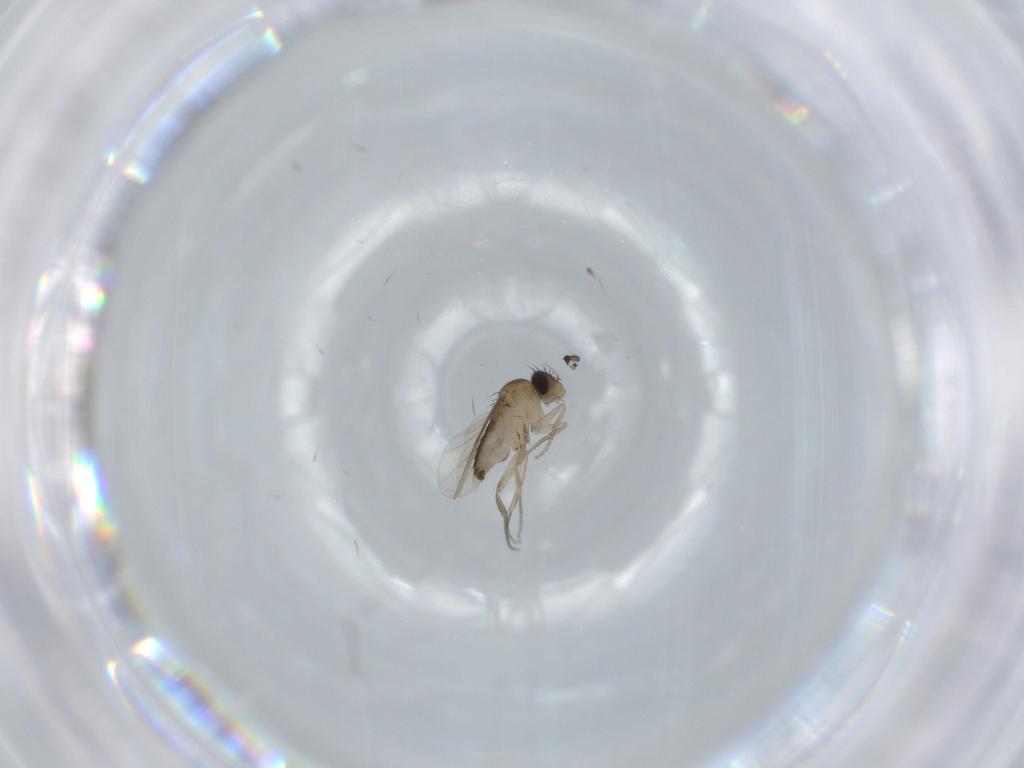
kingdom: Animalia
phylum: Arthropoda
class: Insecta
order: Diptera
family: Sciaridae
